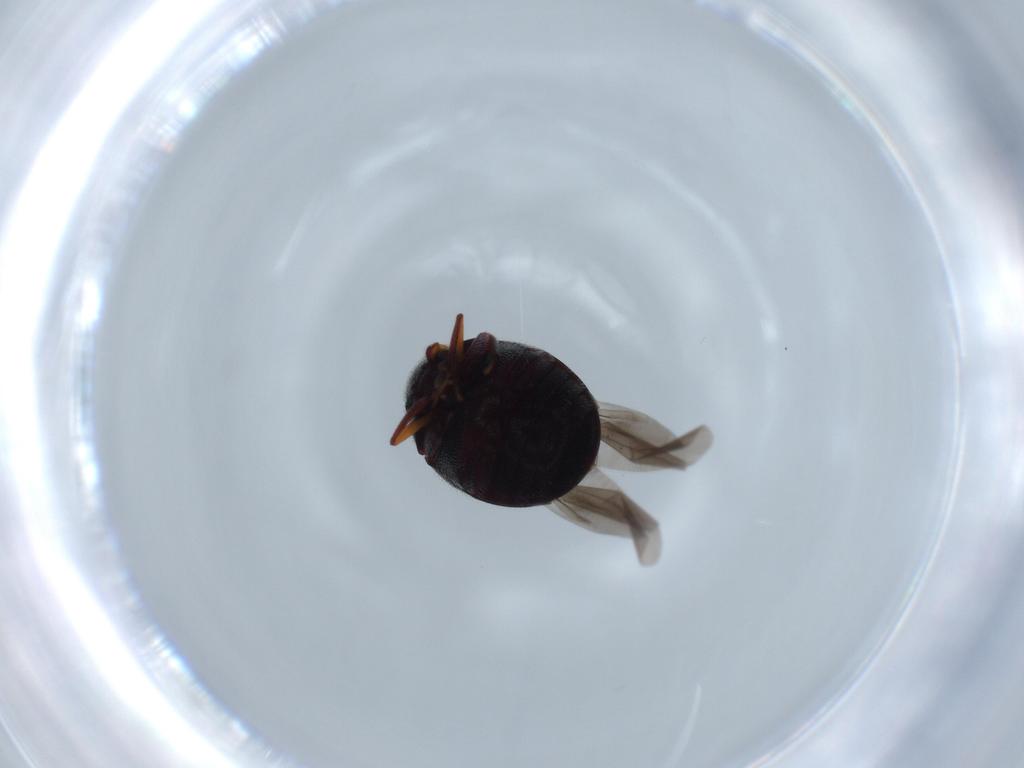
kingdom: Animalia
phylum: Arthropoda
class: Insecta
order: Coleoptera
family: Ptinidae
